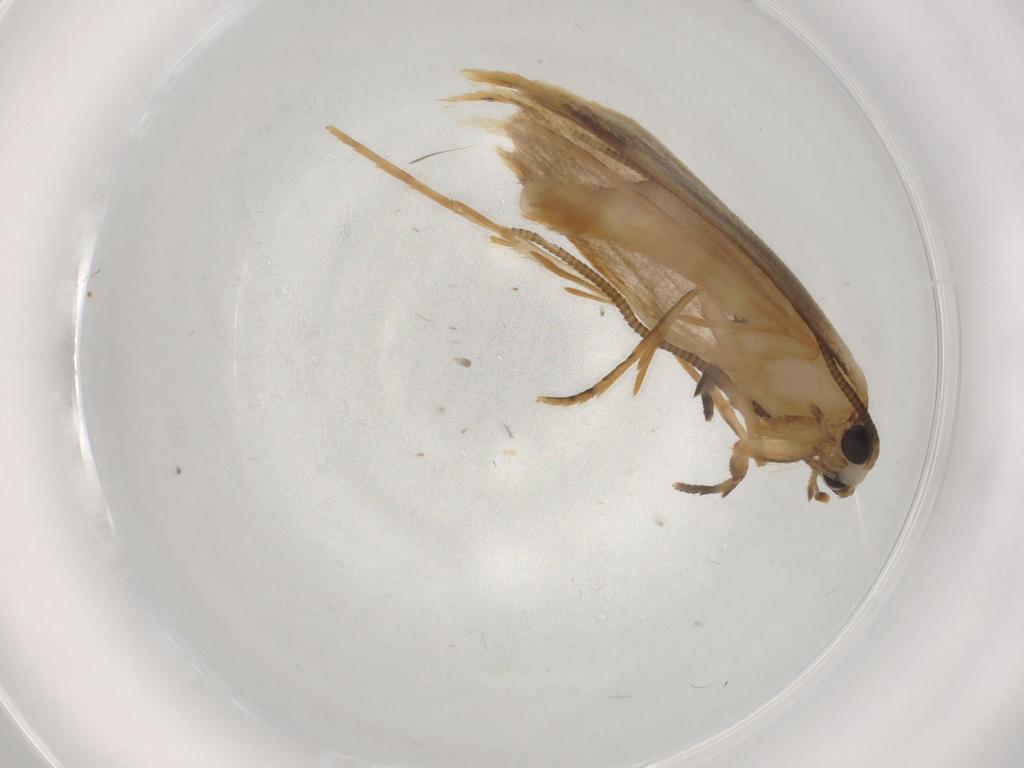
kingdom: Animalia
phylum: Arthropoda
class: Insecta
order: Lepidoptera
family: Tineidae
